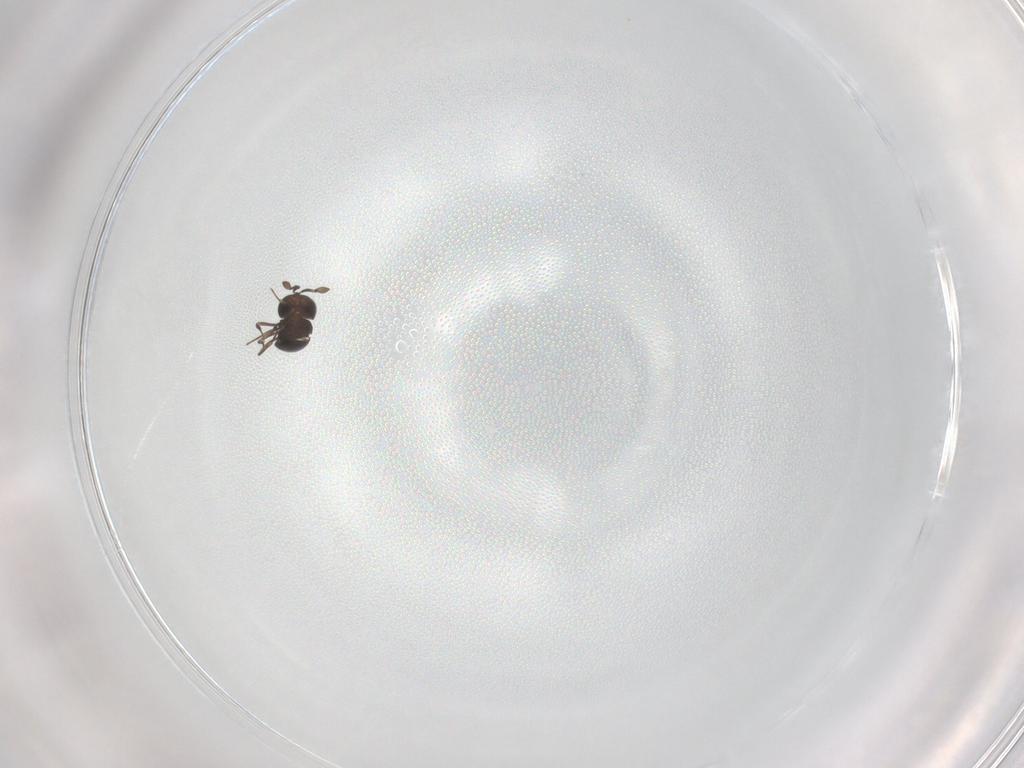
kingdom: Animalia
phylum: Arthropoda
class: Insecta
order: Hymenoptera
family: Scelionidae
